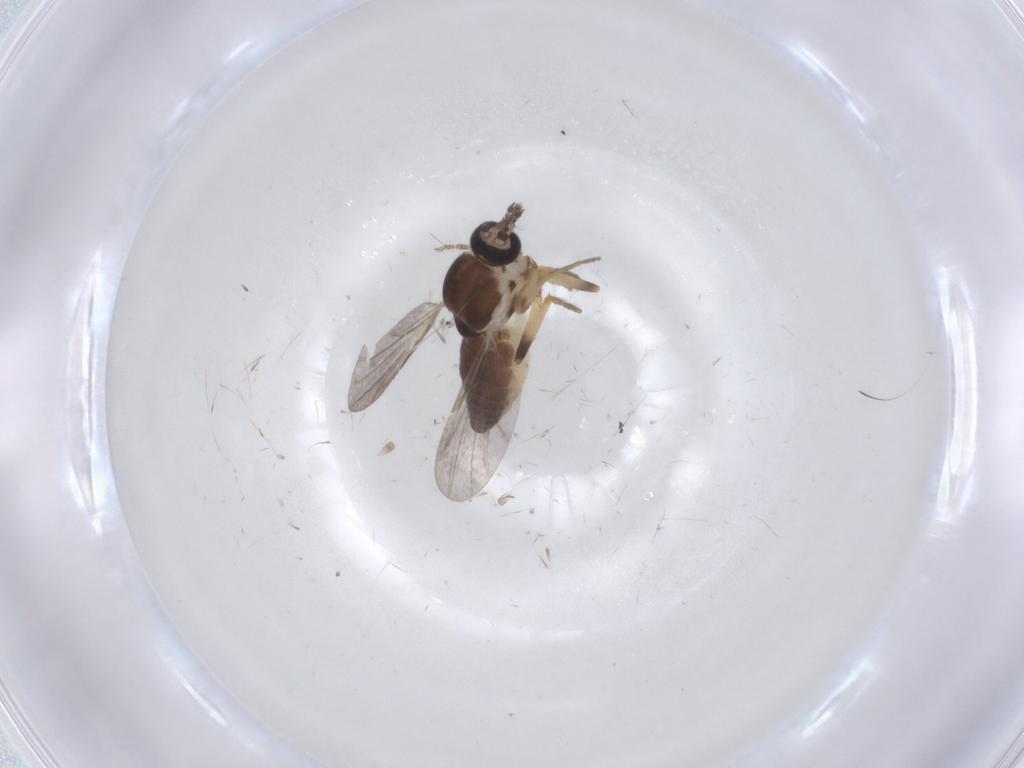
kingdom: Animalia
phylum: Arthropoda
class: Insecta
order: Diptera
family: Ceratopogonidae
